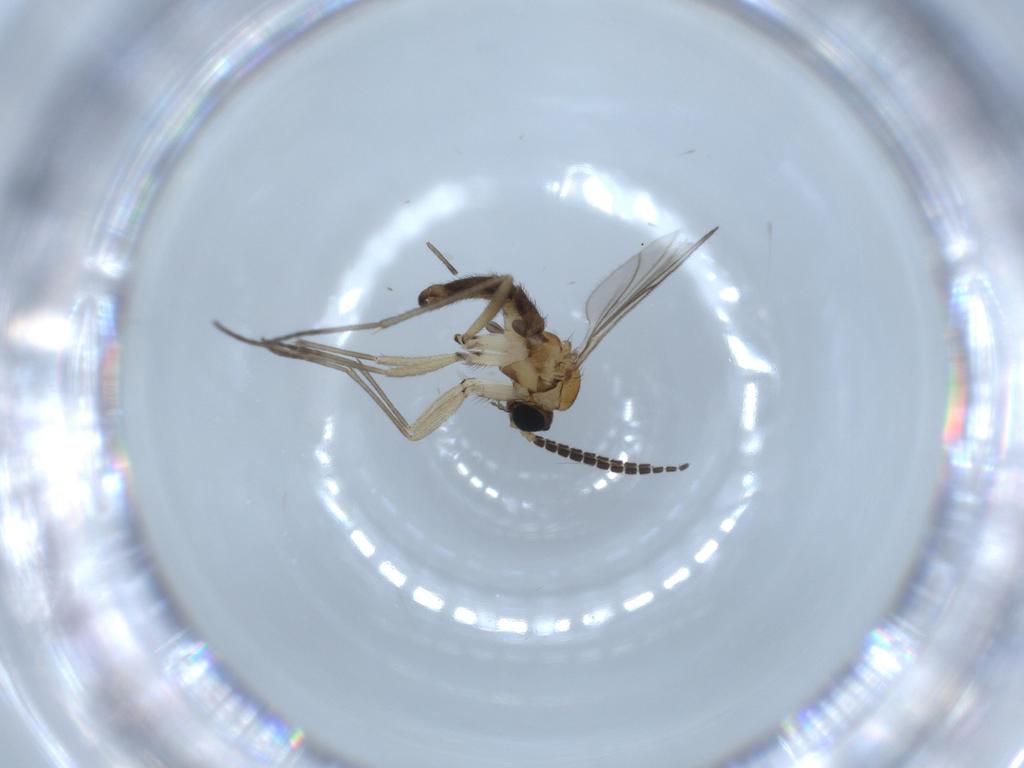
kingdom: Animalia
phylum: Arthropoda
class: Insecta
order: Diptera
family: Sciaridae
